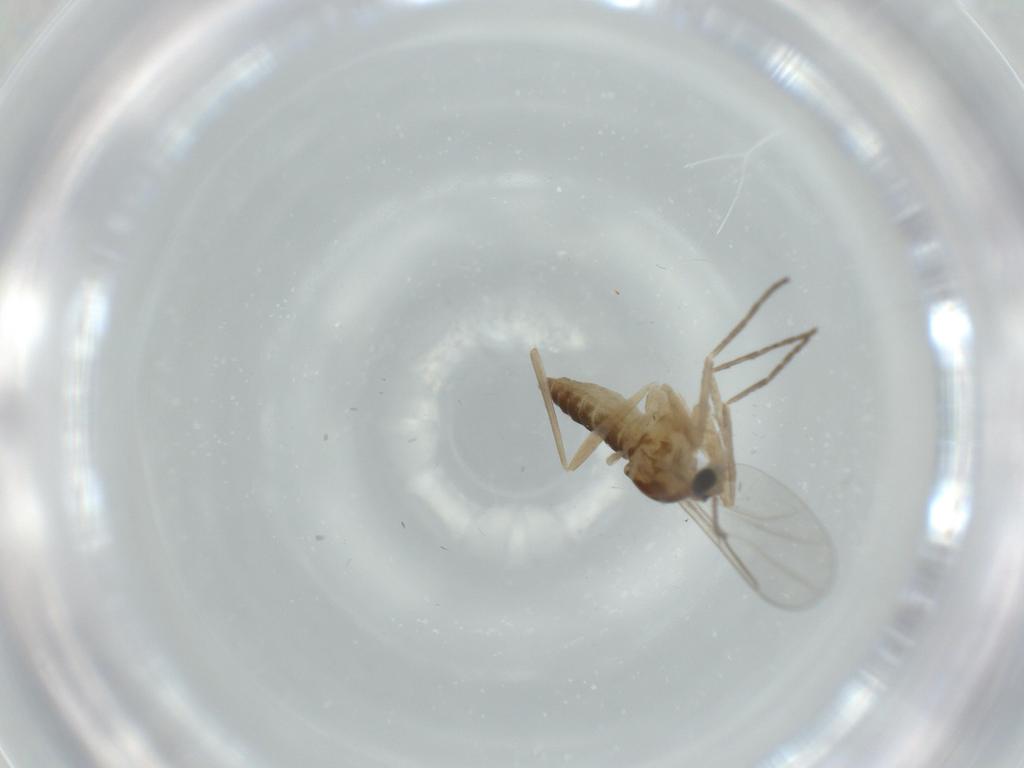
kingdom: Animalia
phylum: Arthropoda
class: Insecta
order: Diptera
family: Cecidomyiidae
